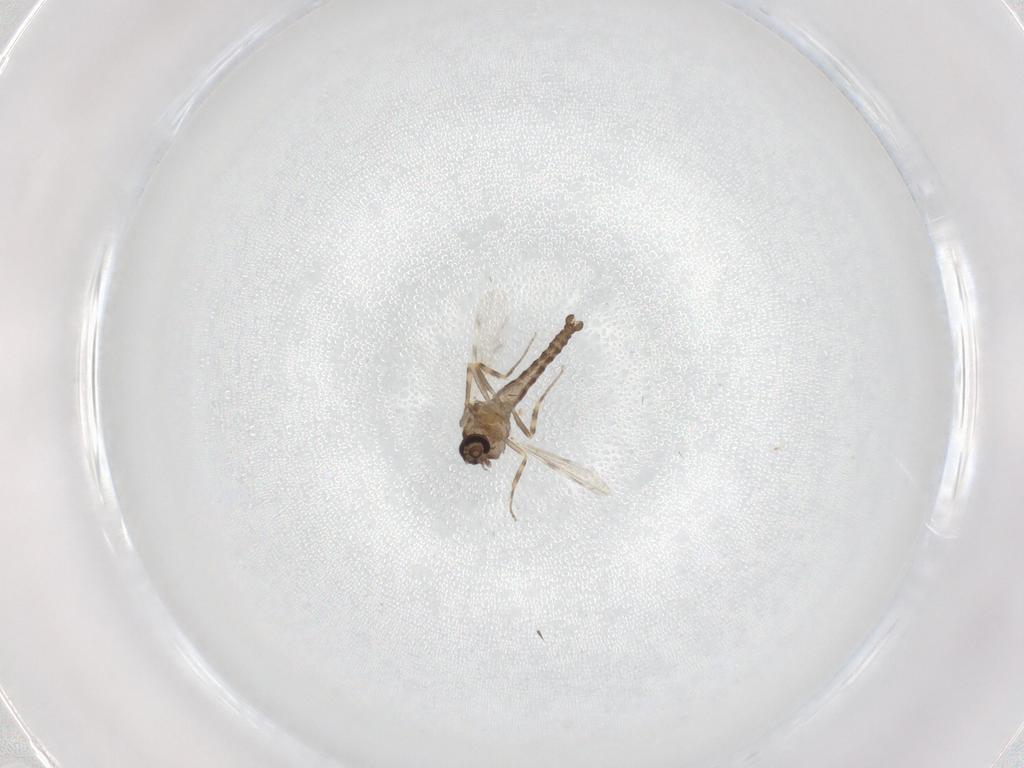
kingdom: Animalia
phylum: Arthropoda
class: Insecta
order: Diptera
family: Ceratopogonidae
